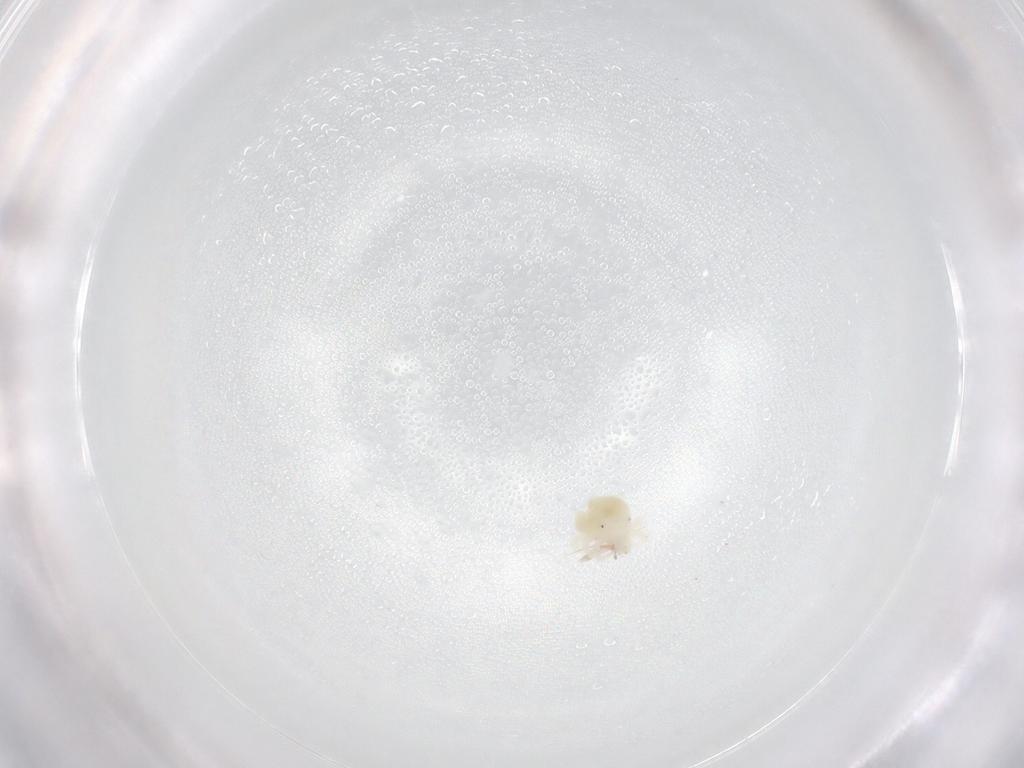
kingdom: Animalia
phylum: Arthropoda
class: Arachnida
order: Trombidiformes
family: Anystidae
